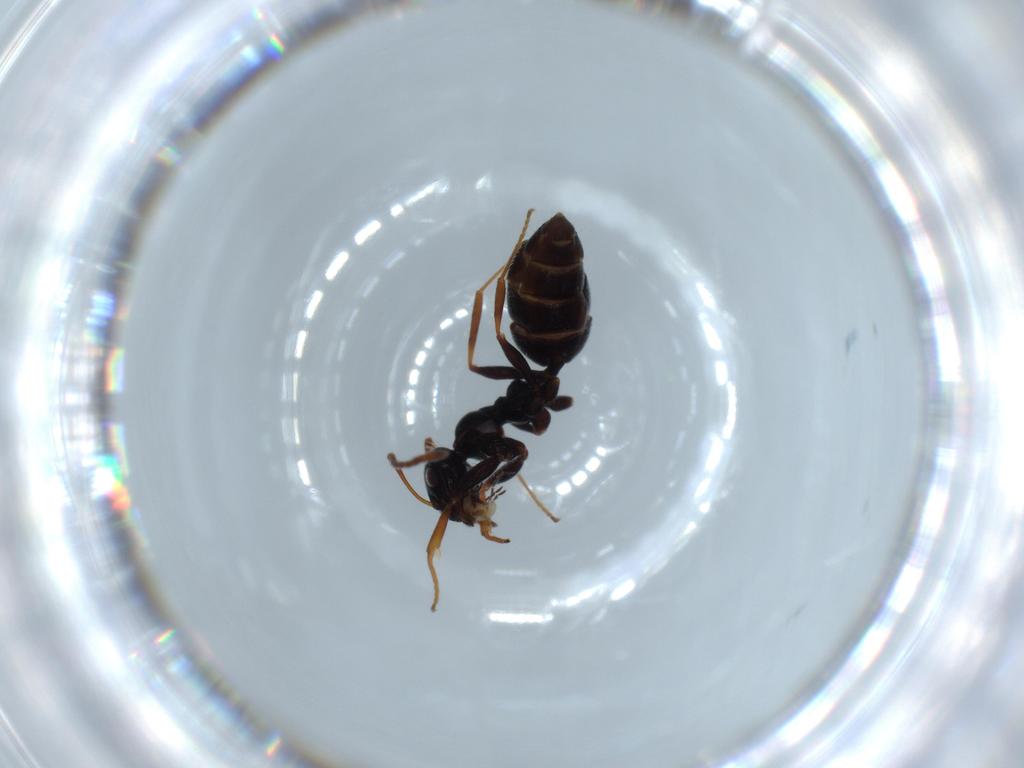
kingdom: Animalia
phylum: Arthropoda
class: Insecta
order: Hymenoptera
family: Formicidae
